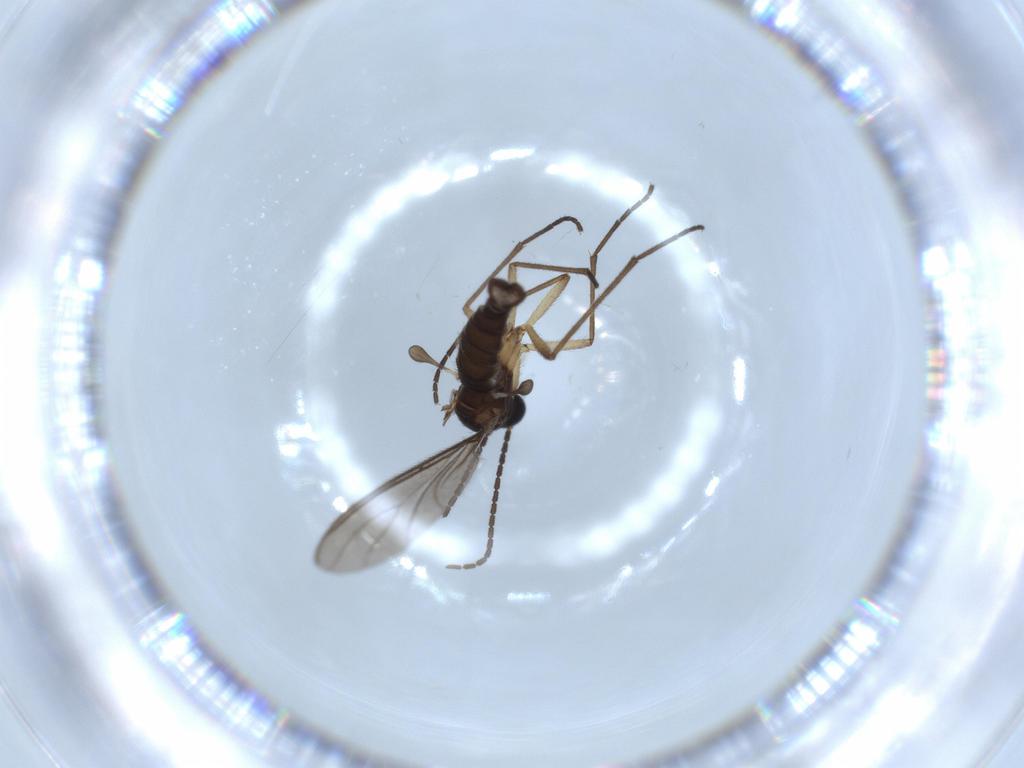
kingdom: Animalia
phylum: Arthropoda
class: Insecta
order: Diptera
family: Sciaridae
